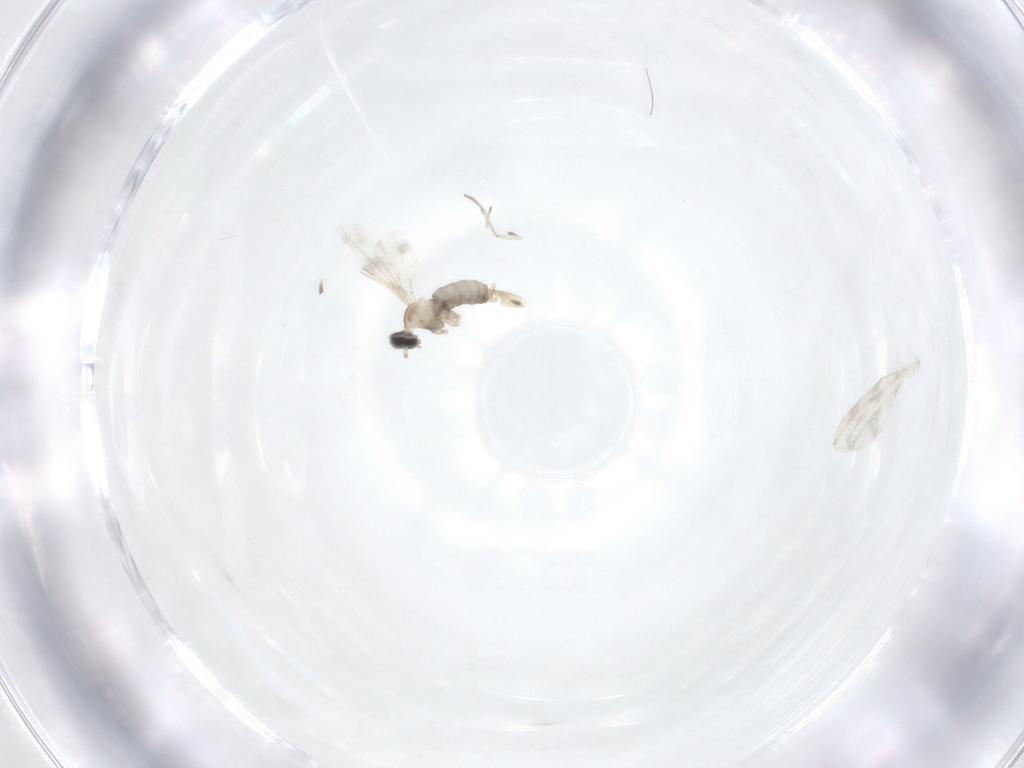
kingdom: Animalia
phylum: Arthropoda
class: Insecta
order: Diptera
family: Cecidomyiidae
